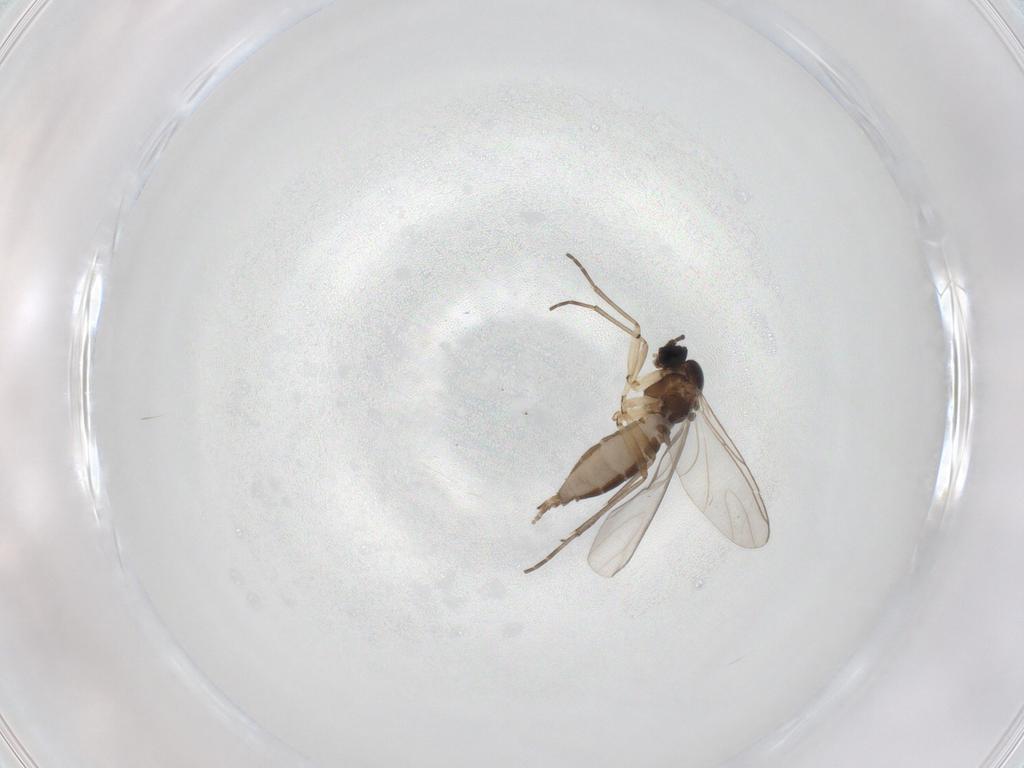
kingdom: Animalia
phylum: Arthropoda
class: Insecta
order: Diptera
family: Sciaridae
